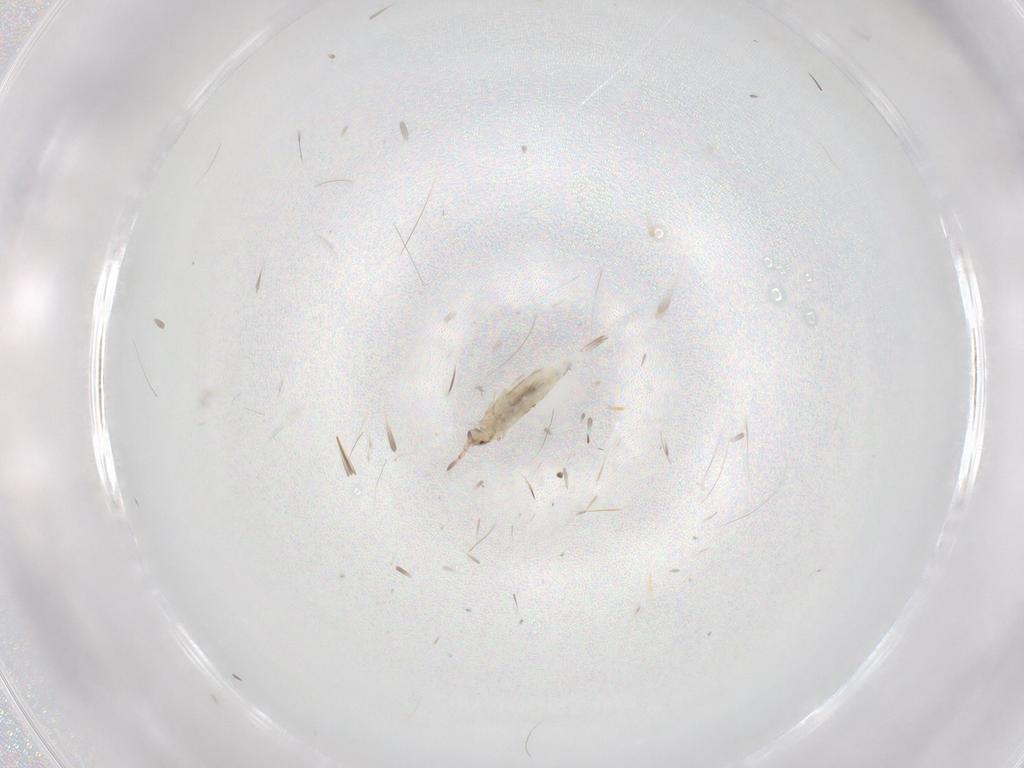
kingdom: Animalia
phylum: Arthropoda
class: Collembola
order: Entomobryomorpha
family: Entomobryidae
